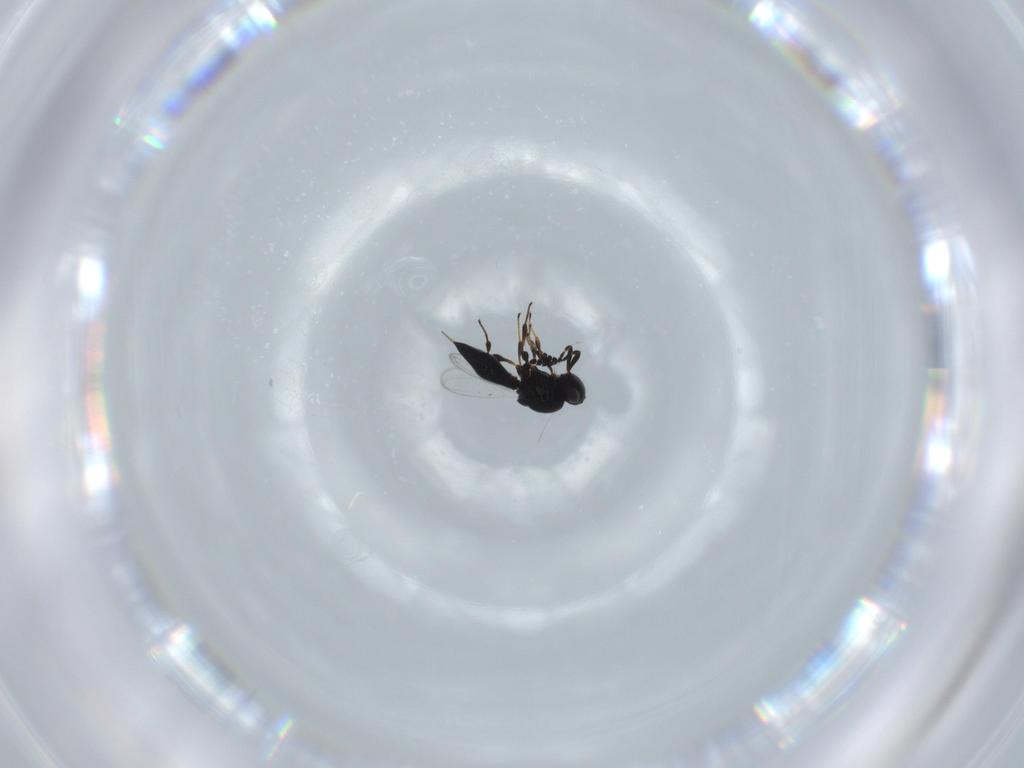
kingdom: Animalia
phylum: Arthropoda
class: Insecta
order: Hymenoptera
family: Platygastridae
